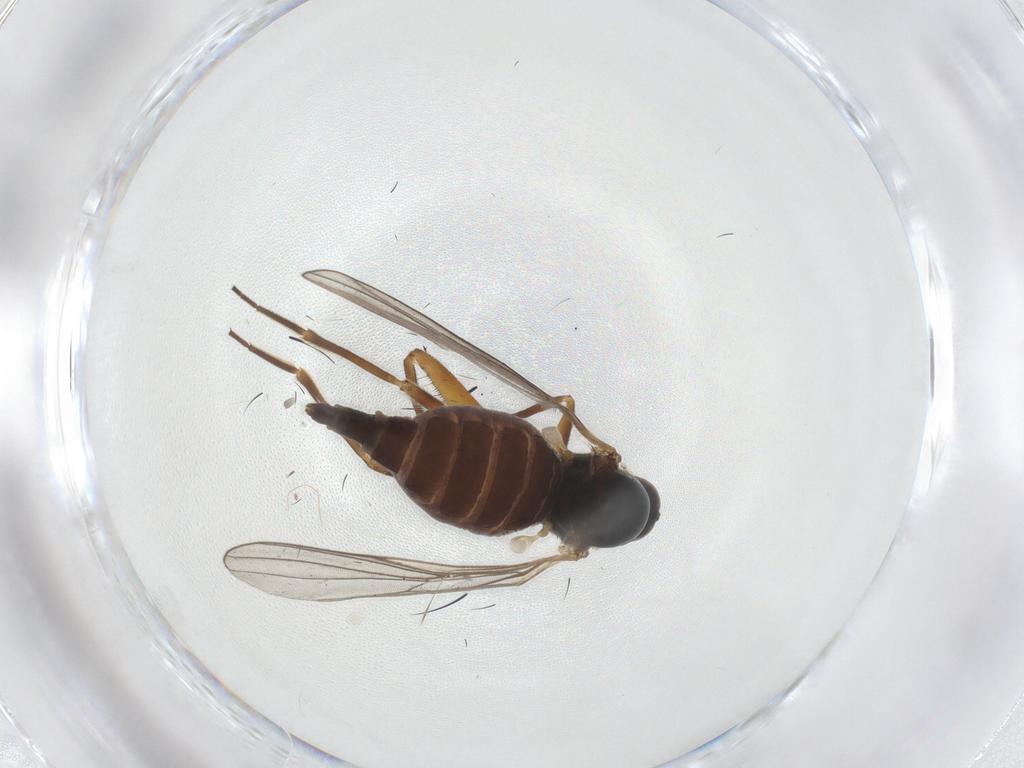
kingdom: Animalia
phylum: Arthropoda
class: Insecta
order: Diptera
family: Hybotidae
